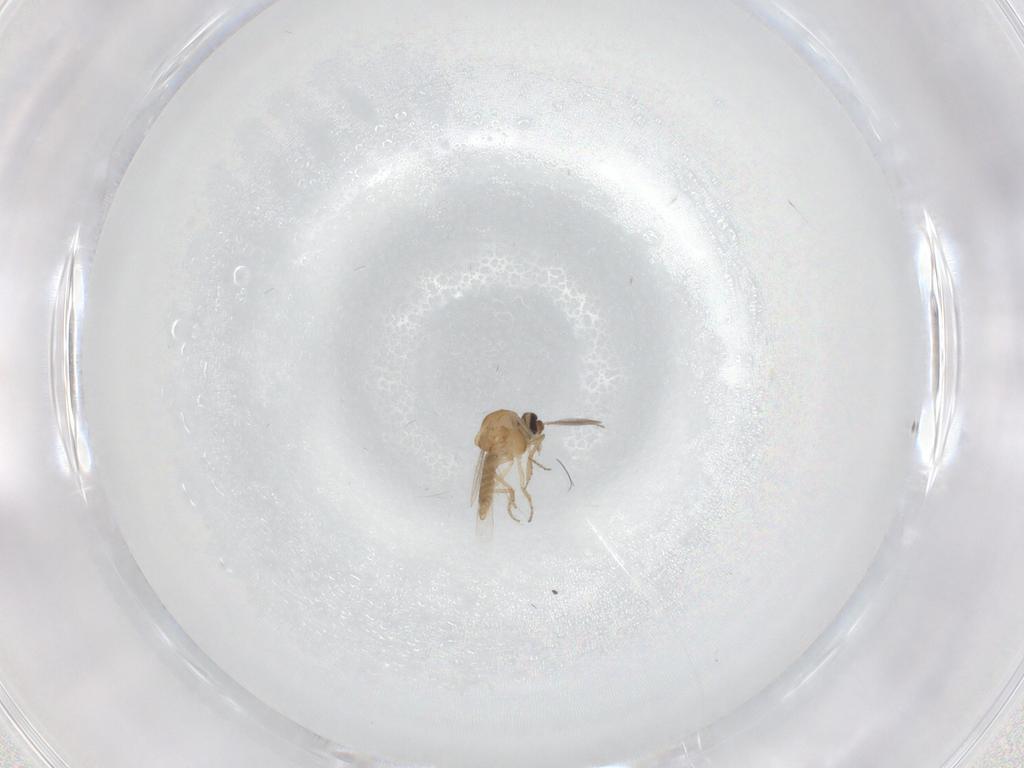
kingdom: Animalia
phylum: Arthropoda
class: Insecta
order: Diptera
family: Ceratopogonidae
